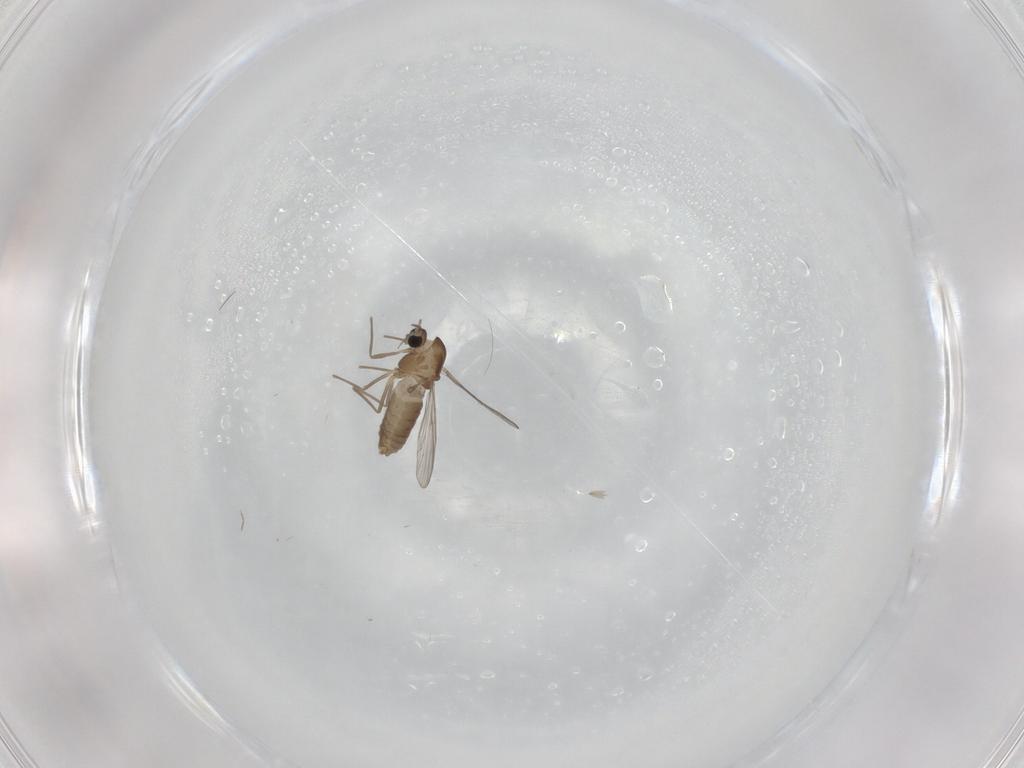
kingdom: Animalia
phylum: Arthropoda
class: Insecta
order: Diptera
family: Chironomidae
